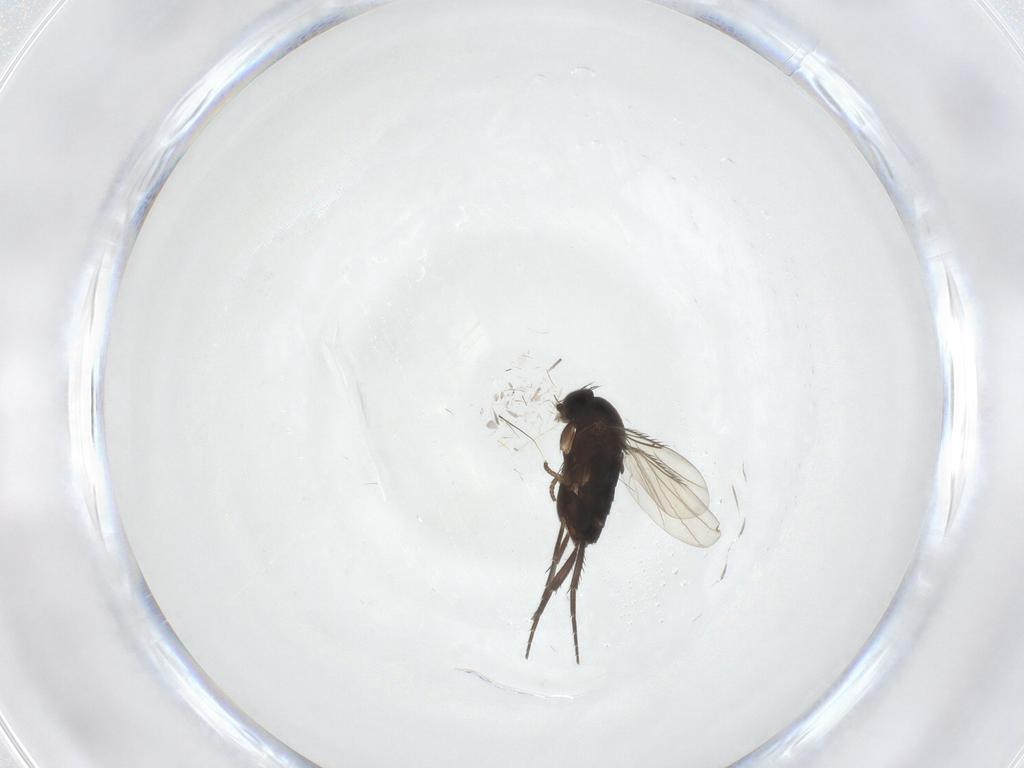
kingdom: Animalia
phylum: Arthropoda
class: Insecta
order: Diptera
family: Phoridae
